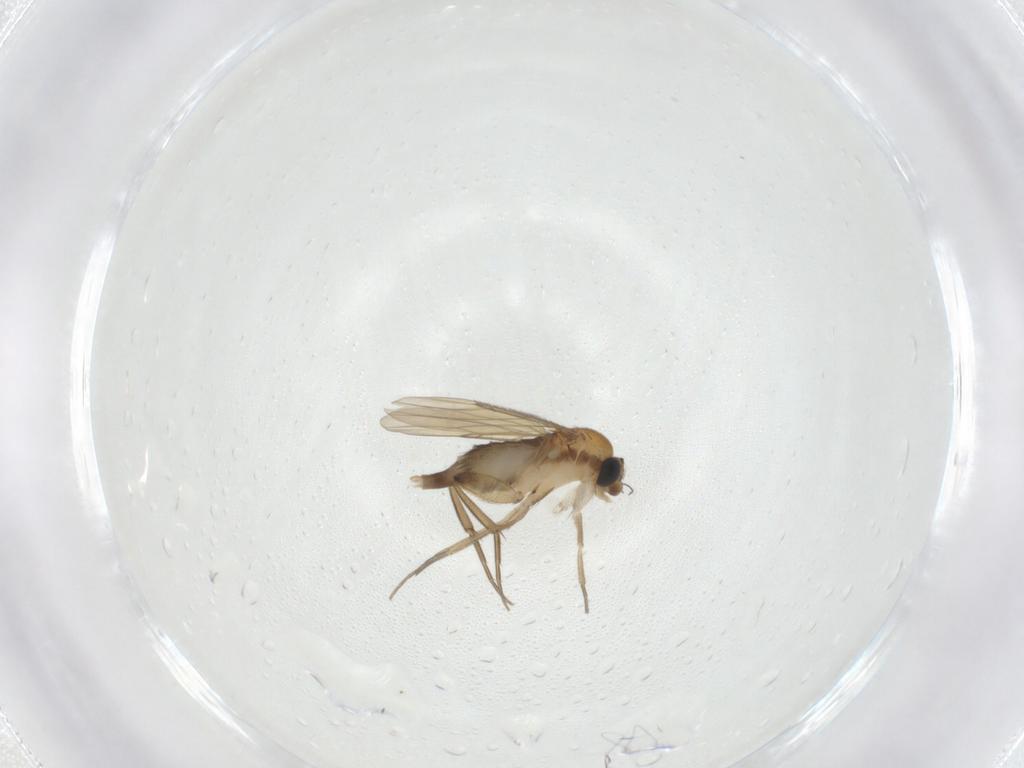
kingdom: Animalia
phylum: Arthropoda
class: Insecta
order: Diptera
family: Phoridae
